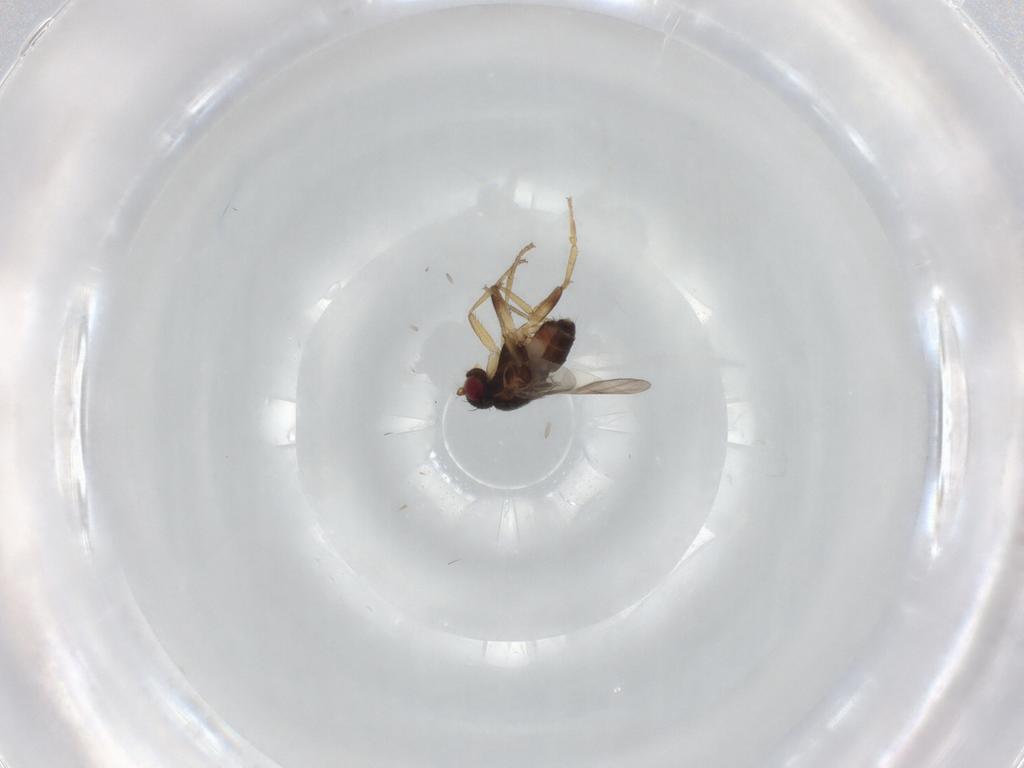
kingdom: Animalia
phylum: Arthropoda
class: Insecta
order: Diptera
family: Sphaeroceridae
